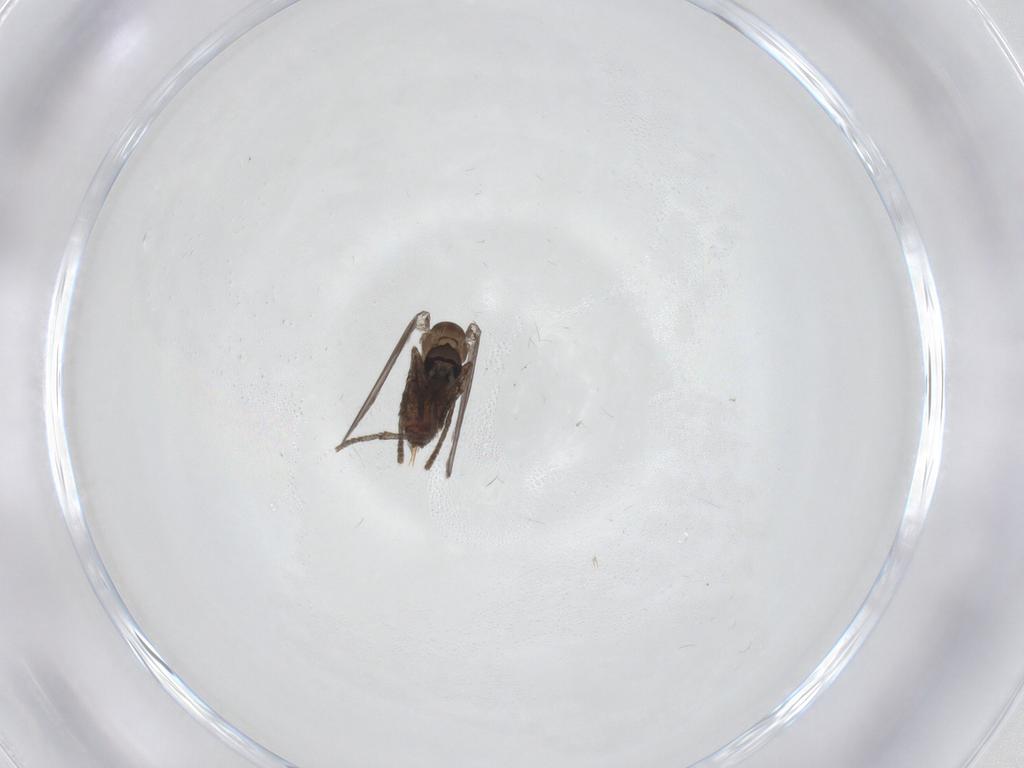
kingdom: Animalia
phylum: Arthropoda
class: Insecta
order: Diptera
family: Psychodidae
